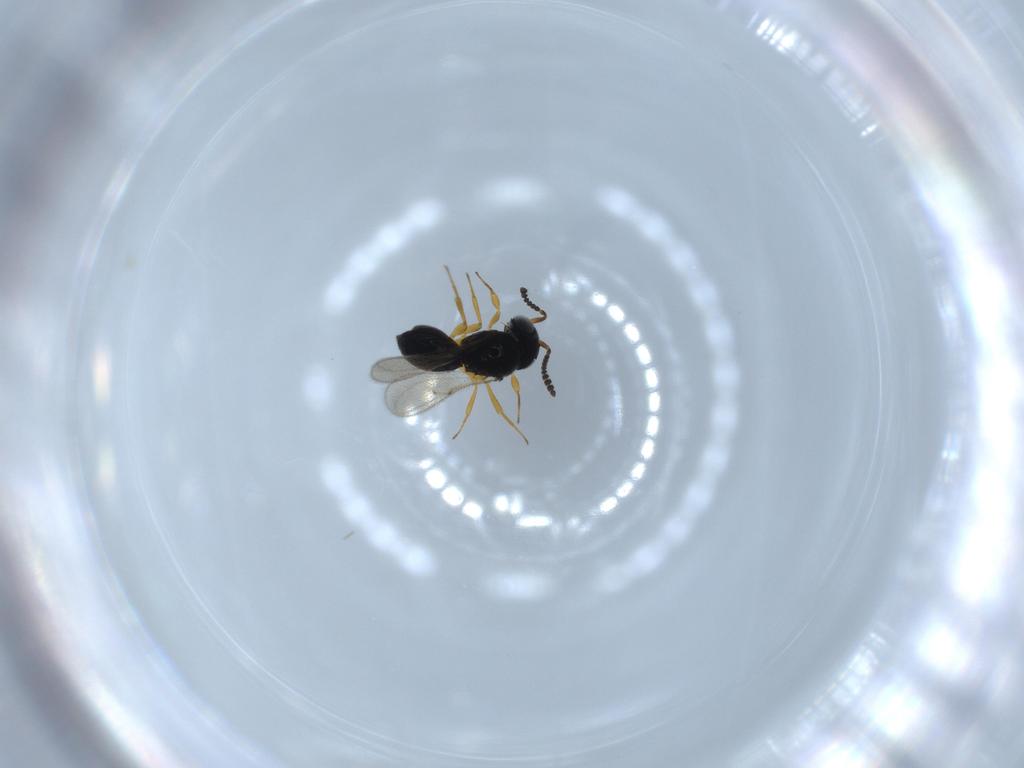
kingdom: Animalia
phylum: Arthropoda
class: Insecta
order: Hymenoptera
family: Scelionidae
